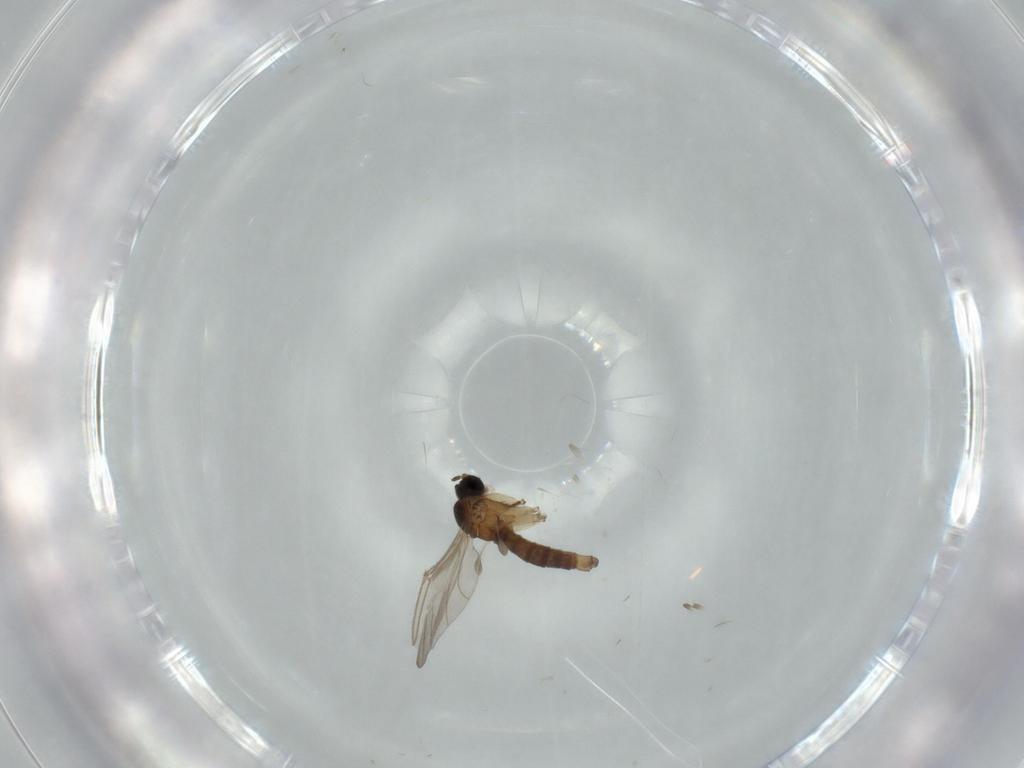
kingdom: Animalia
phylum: Arthropoda
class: Insecta
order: Diptera
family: Sciaridae
